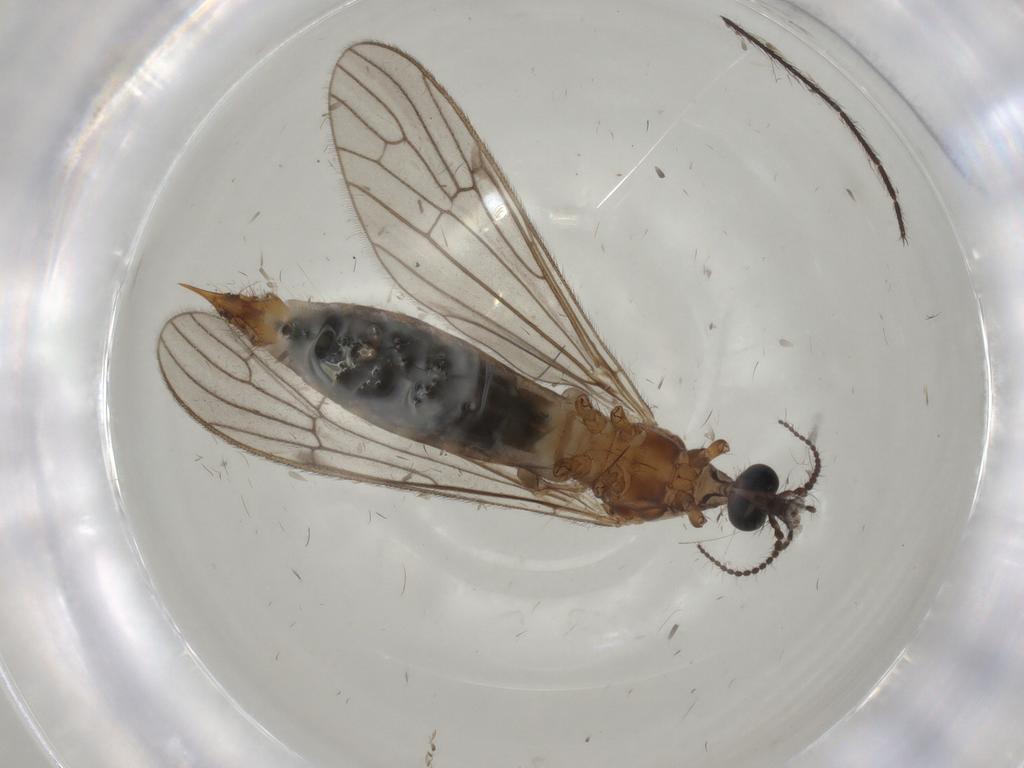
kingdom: Animalia
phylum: Arthropoda
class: Insecta
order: Diptera
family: Limoniidae
